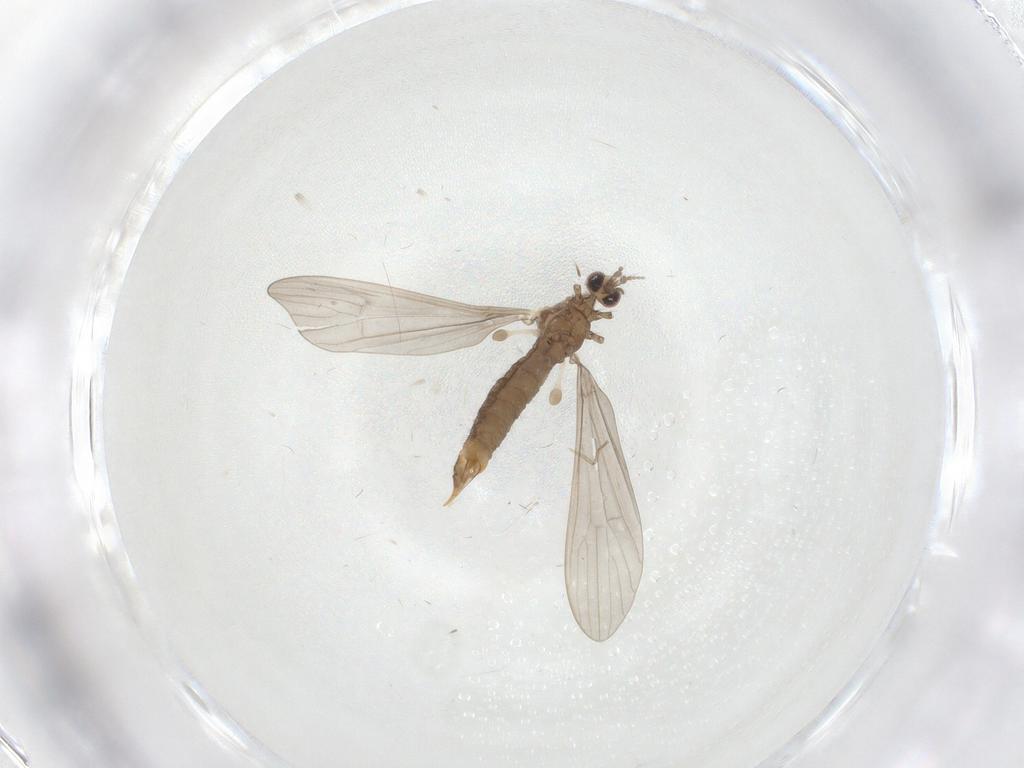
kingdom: Animalia
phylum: Arthropoda
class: Insecta
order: Diptera
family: Limoniidae
